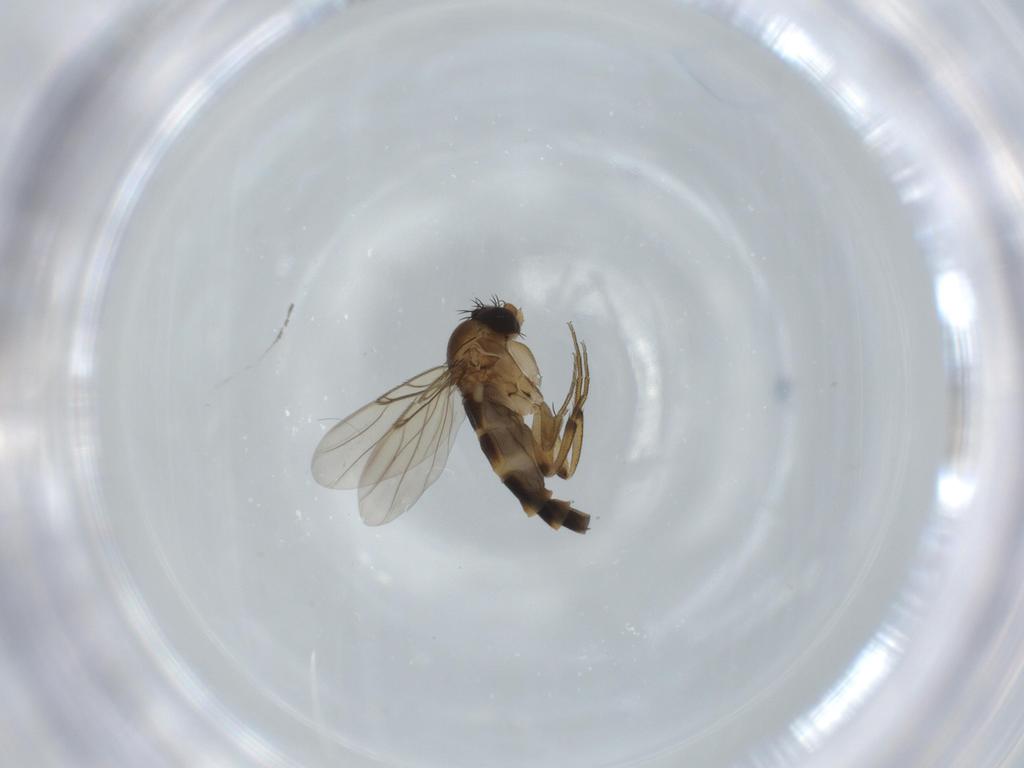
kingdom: Animalia
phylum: Arthropoda
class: Insecta
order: Diptera
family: Phoridae
